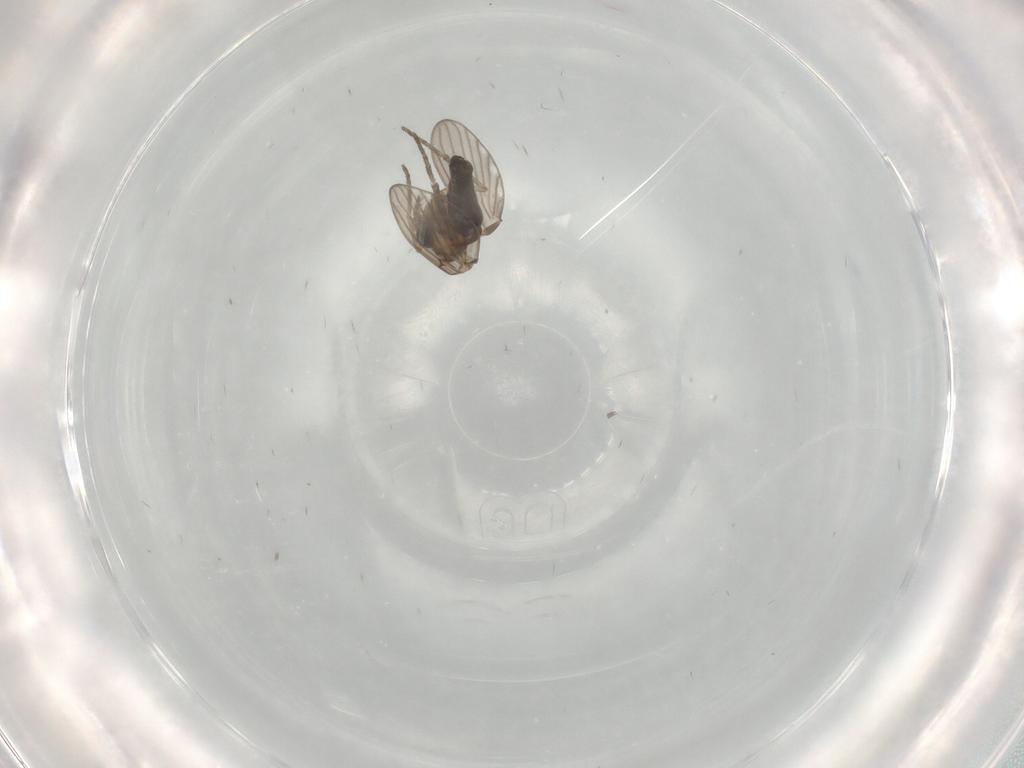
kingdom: Animalia
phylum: Arthropoda
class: Insecta
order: Diptera
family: Psychodidae
